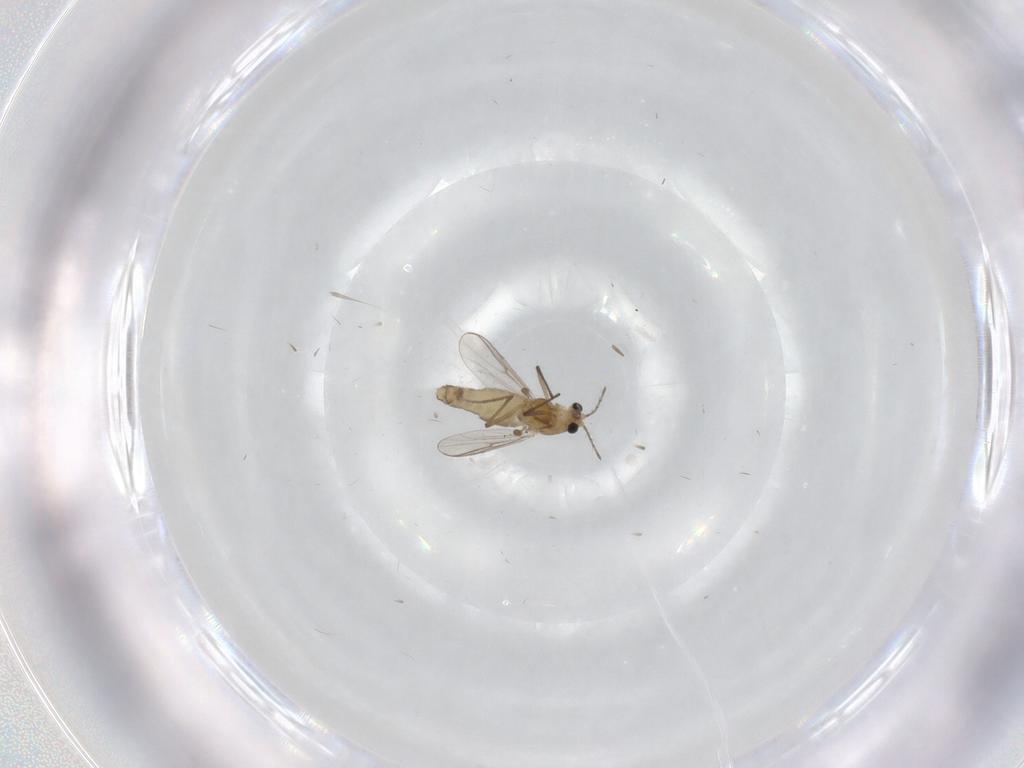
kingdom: Animalia
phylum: Arthropoda
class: Insecta
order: Diptera
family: Chironomidae
